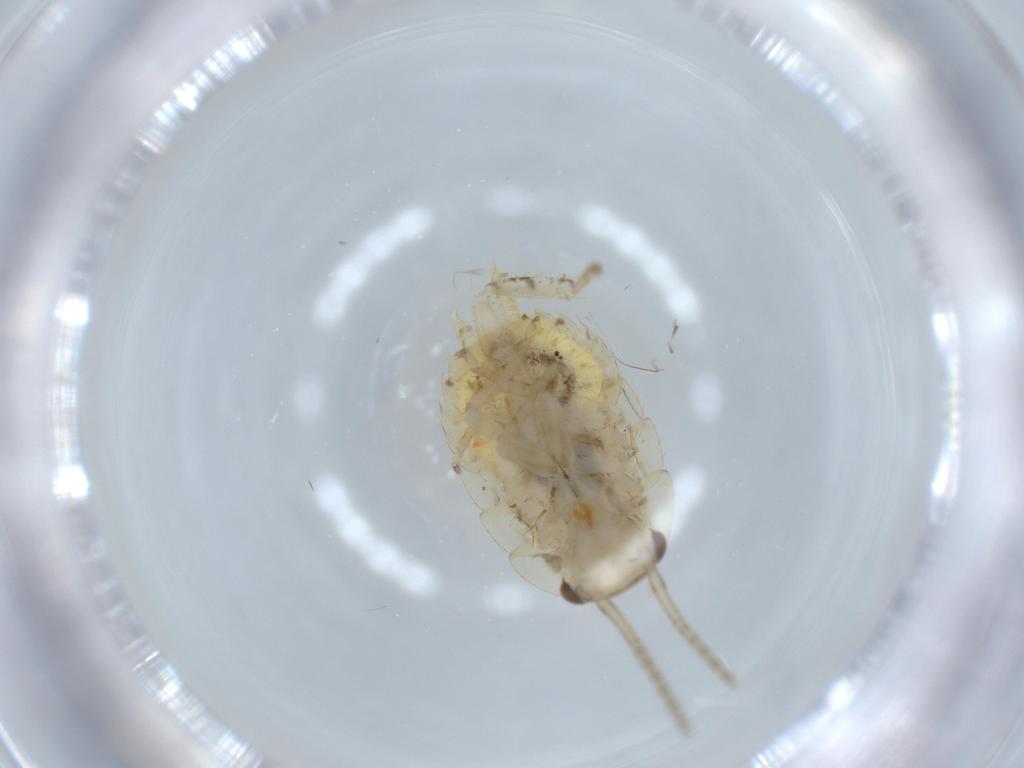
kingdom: Animalia
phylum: Arthropoda
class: Insecta
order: Blattodea
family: Ectobiidae
